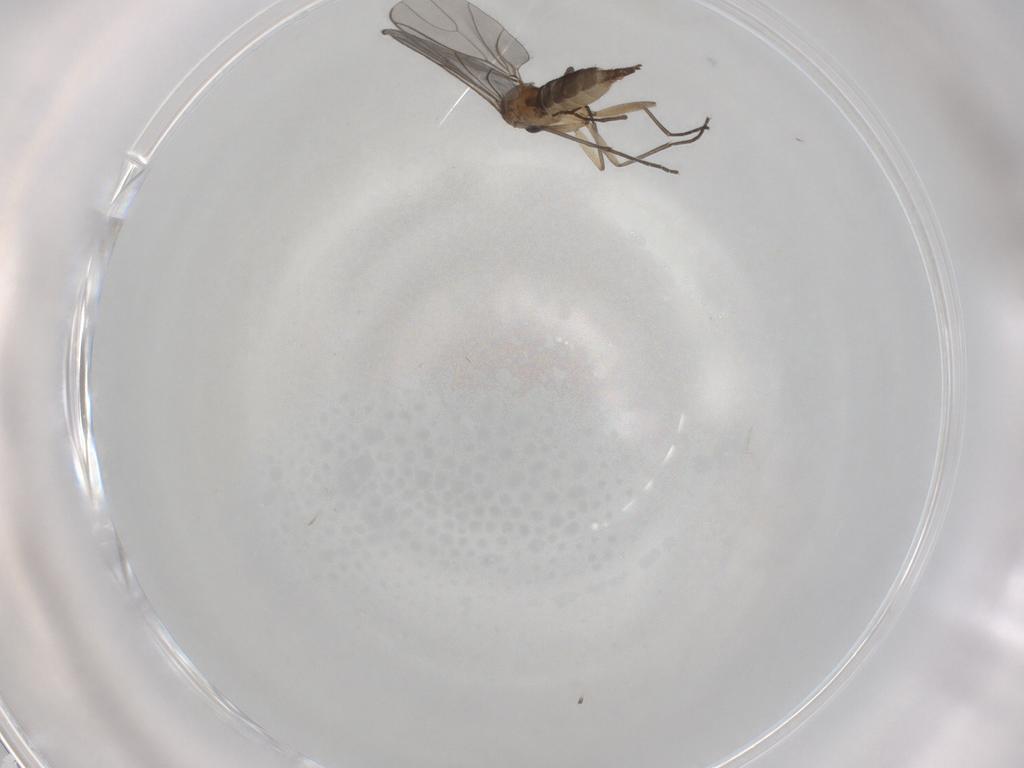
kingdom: Animalia
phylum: Arthropoda
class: Insecta
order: Diptera
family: Sciaridae
